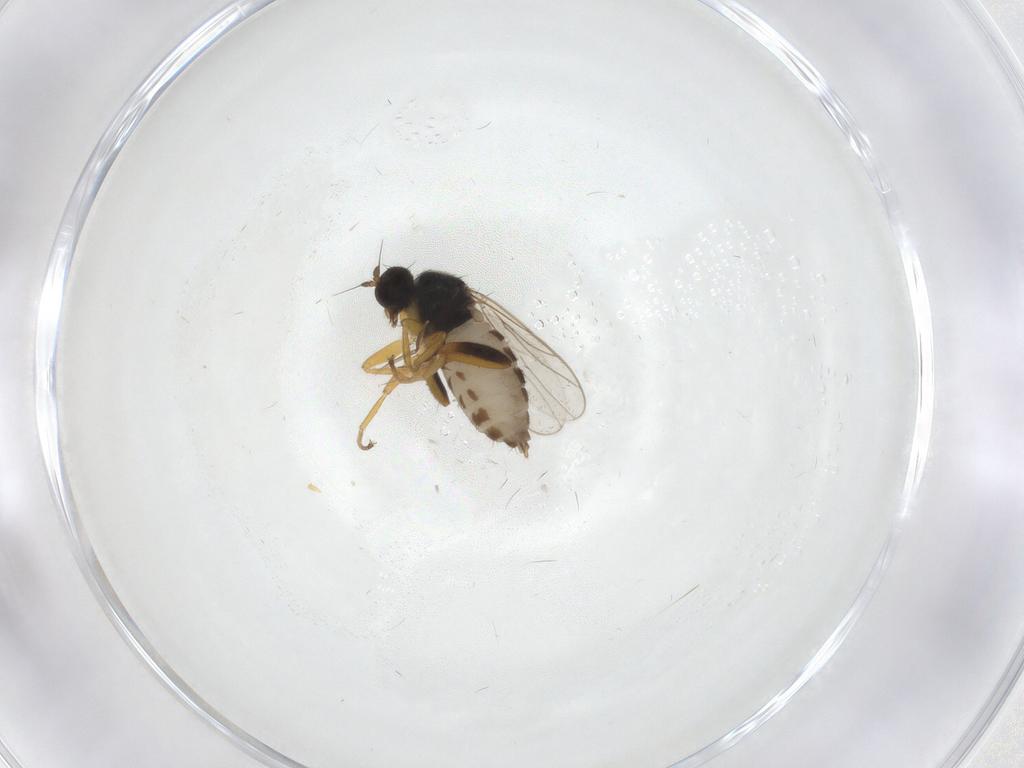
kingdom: Animalia
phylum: Arthropoda
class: Insecta
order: Diptera
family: Hybotidae
